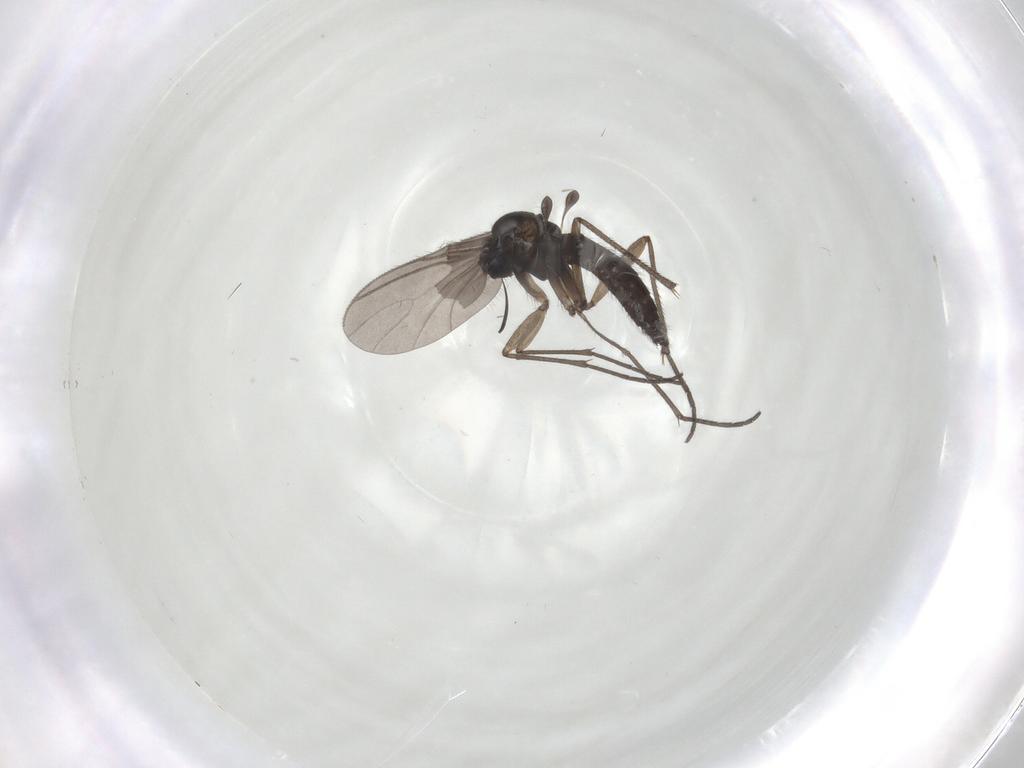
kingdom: Animalia
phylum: Arthropoda
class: Insecta
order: Diptera
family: Sciaridae
